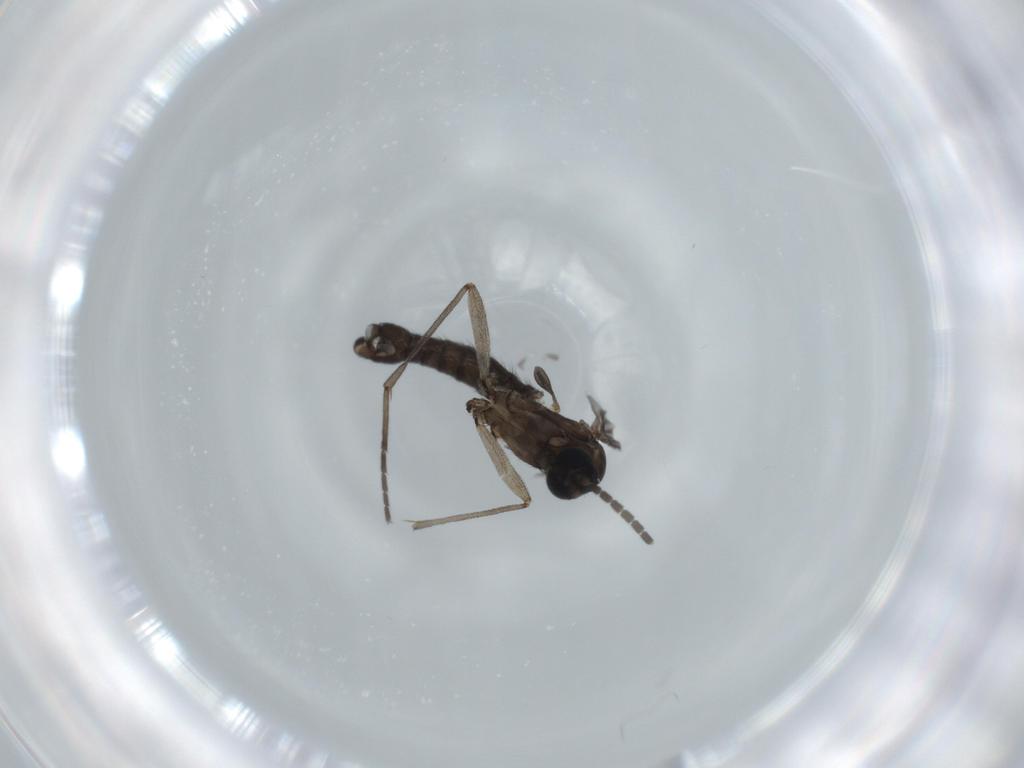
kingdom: Animalia
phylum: Arthropoda
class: Insecta
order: Diptera
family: Sciaridae
